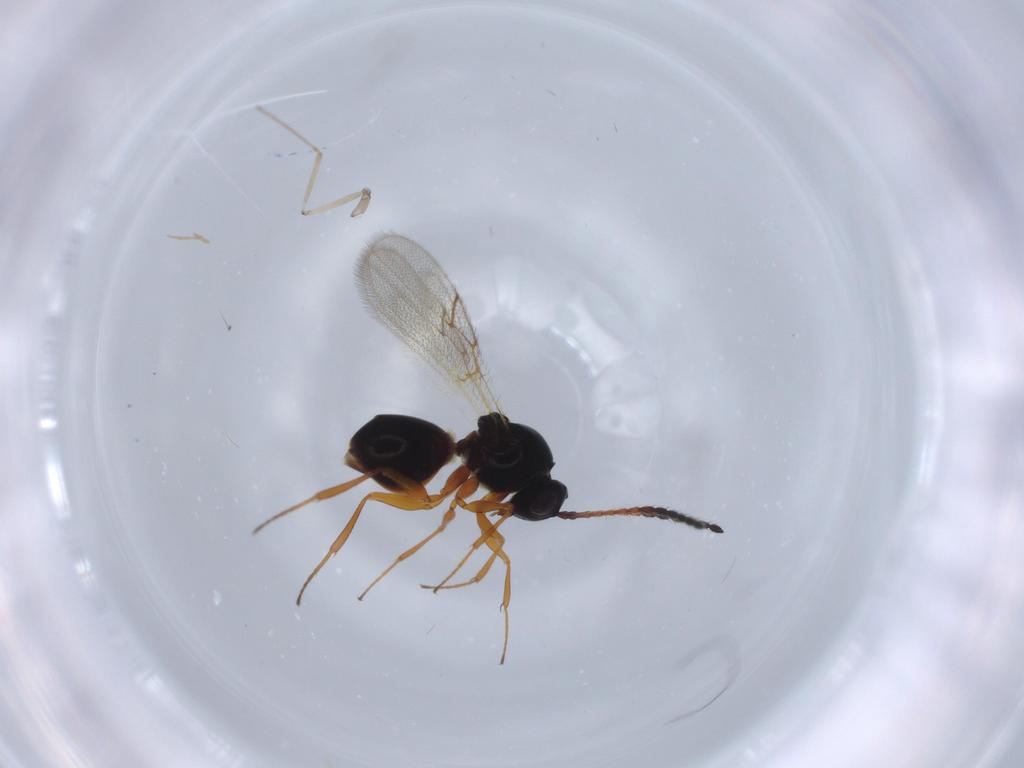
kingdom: Animalia
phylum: Arthropoda
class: Insecta
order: Hymenoptera
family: Figitidae
